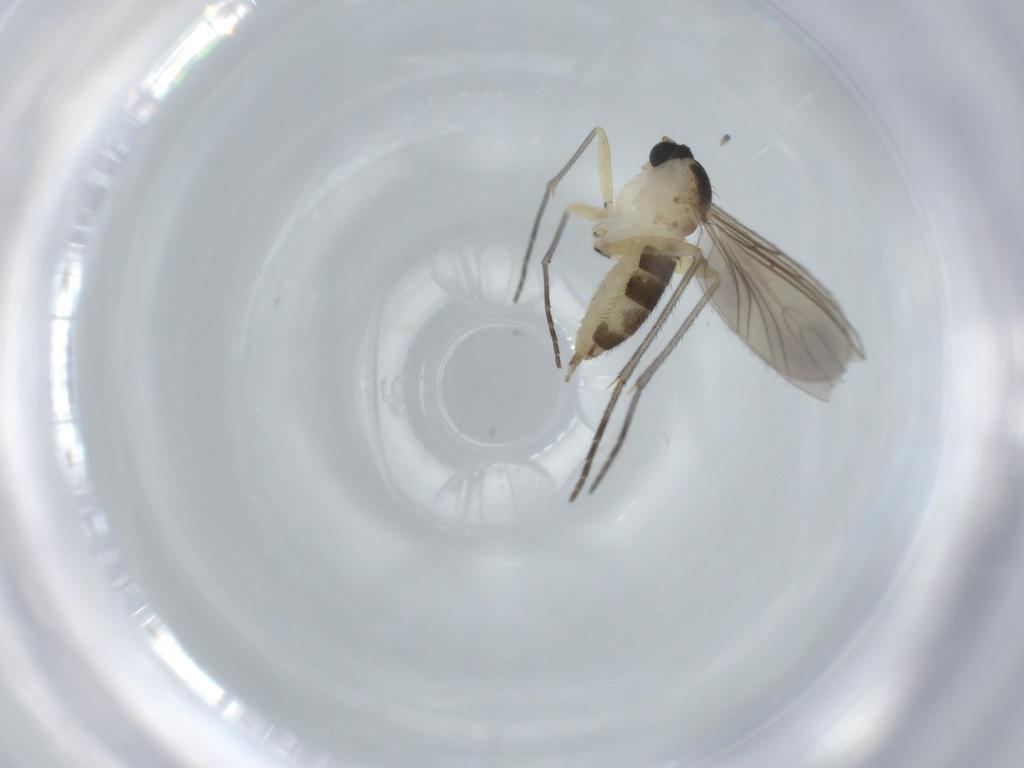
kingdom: Animalia
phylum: Arthropoda
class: Insecta
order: Diptera
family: Sciaridae
